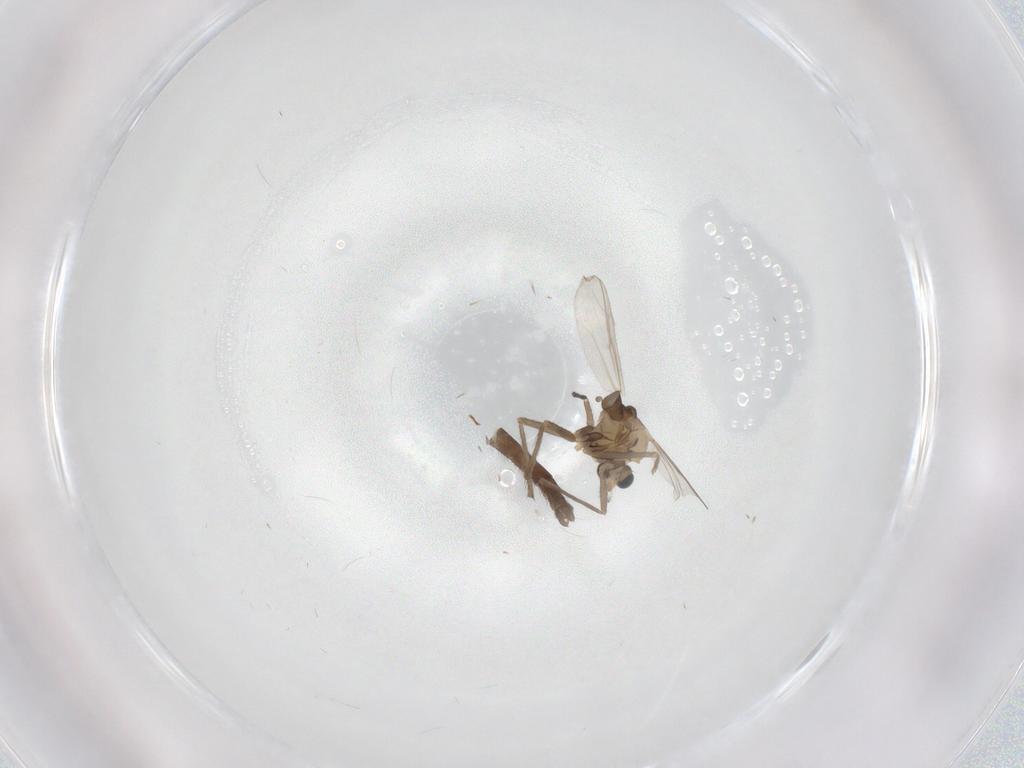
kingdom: Animalia
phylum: Arthropoda
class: Insecta
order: Diptera
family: Chironomidae
